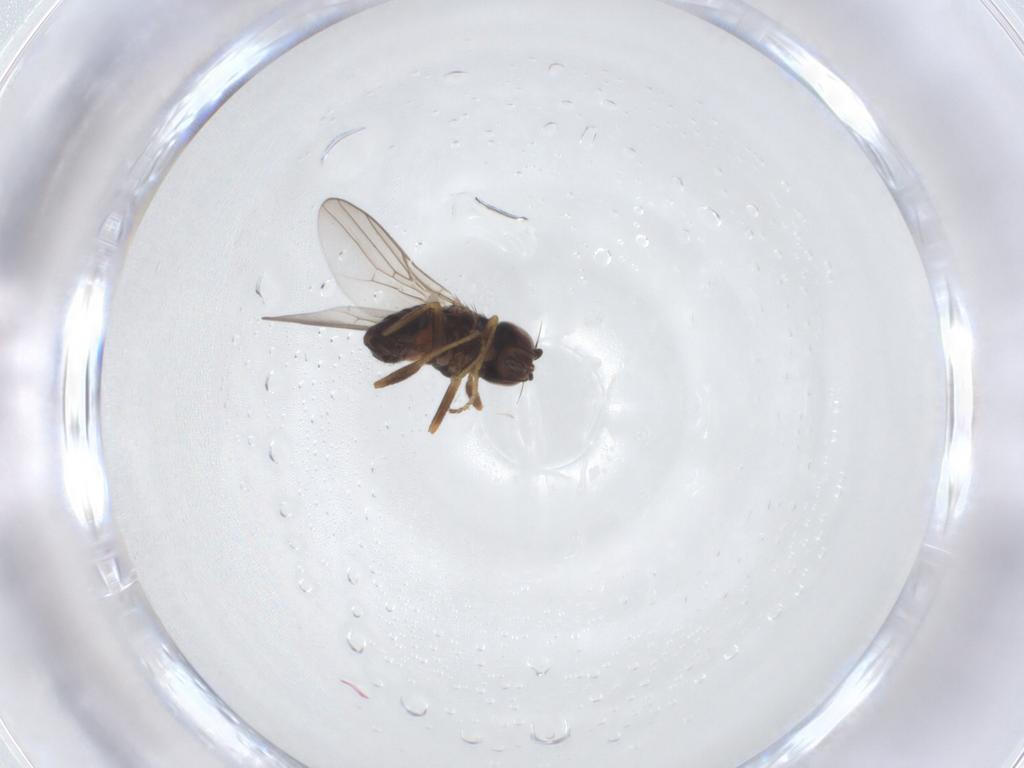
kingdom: Animalia
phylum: Arthropoda
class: Insecta
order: Diptera
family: Chloropidae
